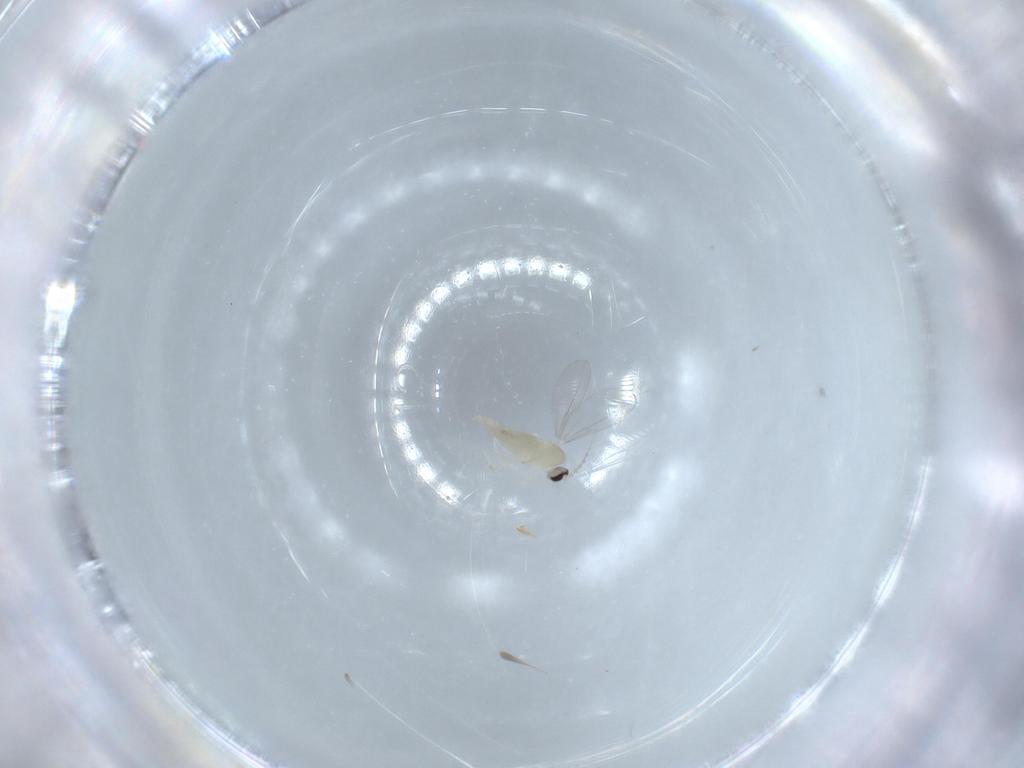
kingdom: Animalia
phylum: Arthropoda
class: Insecta
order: Diptera
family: Cecidomyiidae
